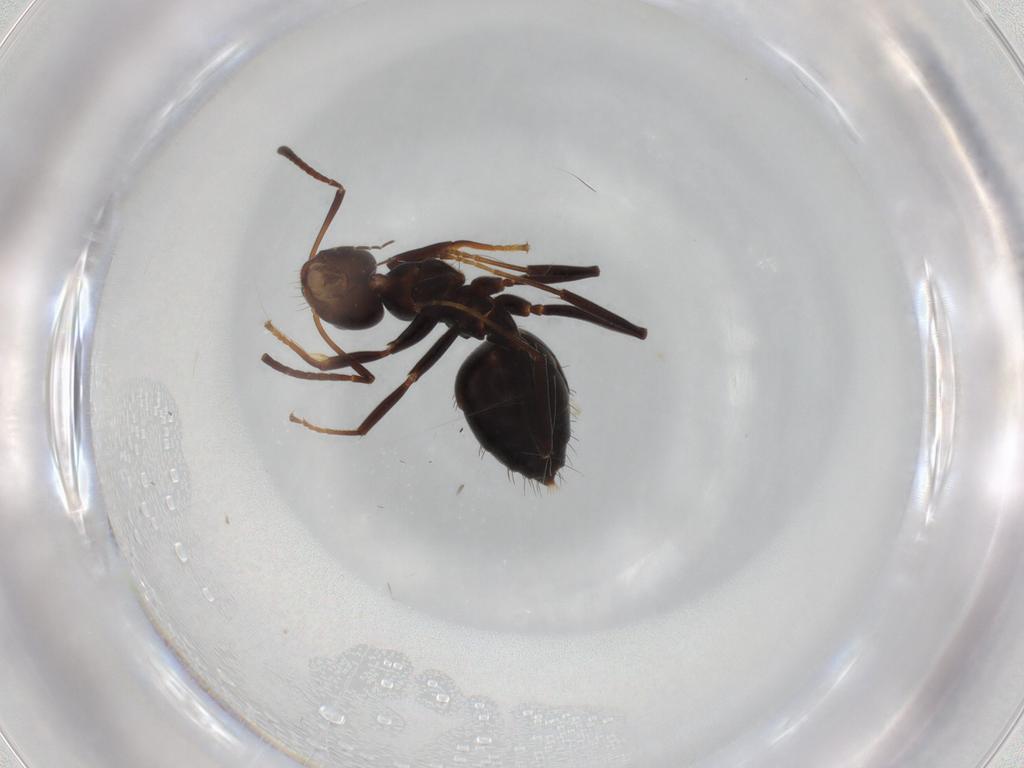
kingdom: Animalia
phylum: Arthropoda
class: Insecta
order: Hymenoptera
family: Formicidae
